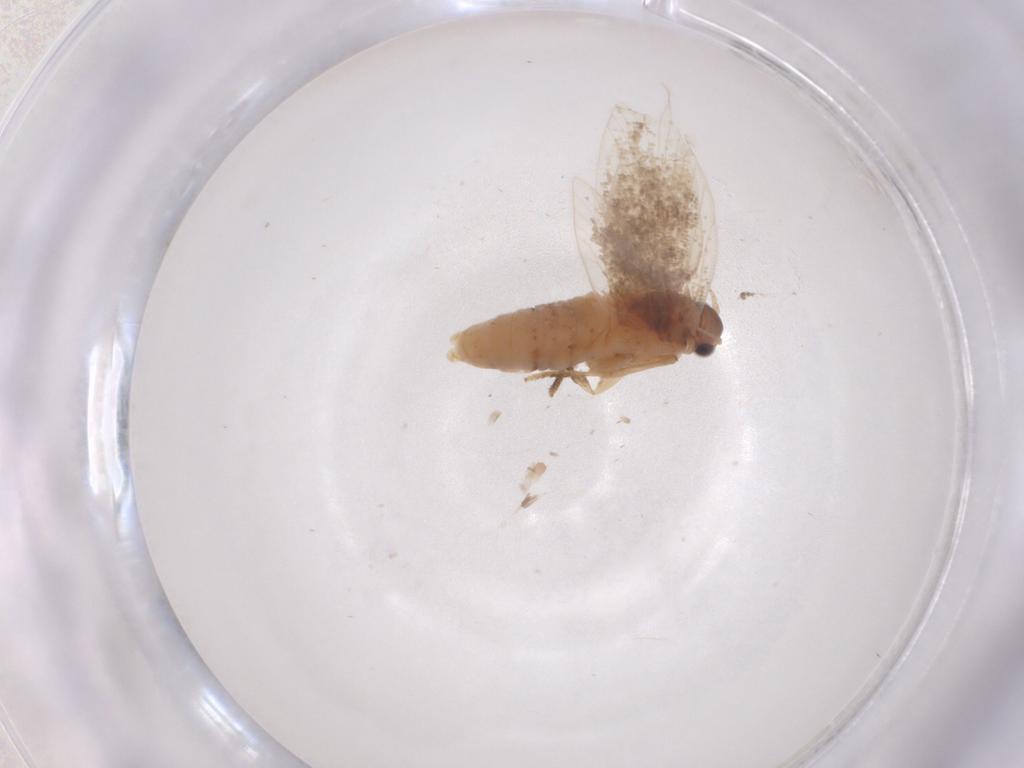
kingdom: Animalia
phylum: Arthropoda
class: Insecta
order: Lepidoptera
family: Eriocottidae
